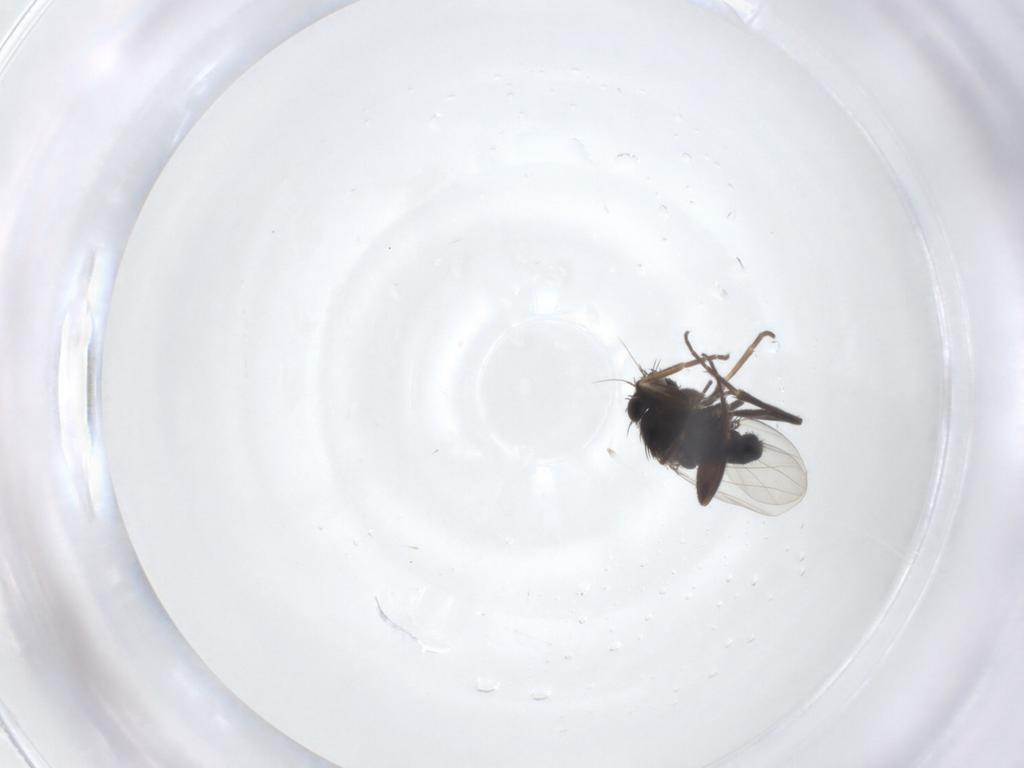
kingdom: Animalia
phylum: Arthropoda
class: Insecta
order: Diptera
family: Phoridae
